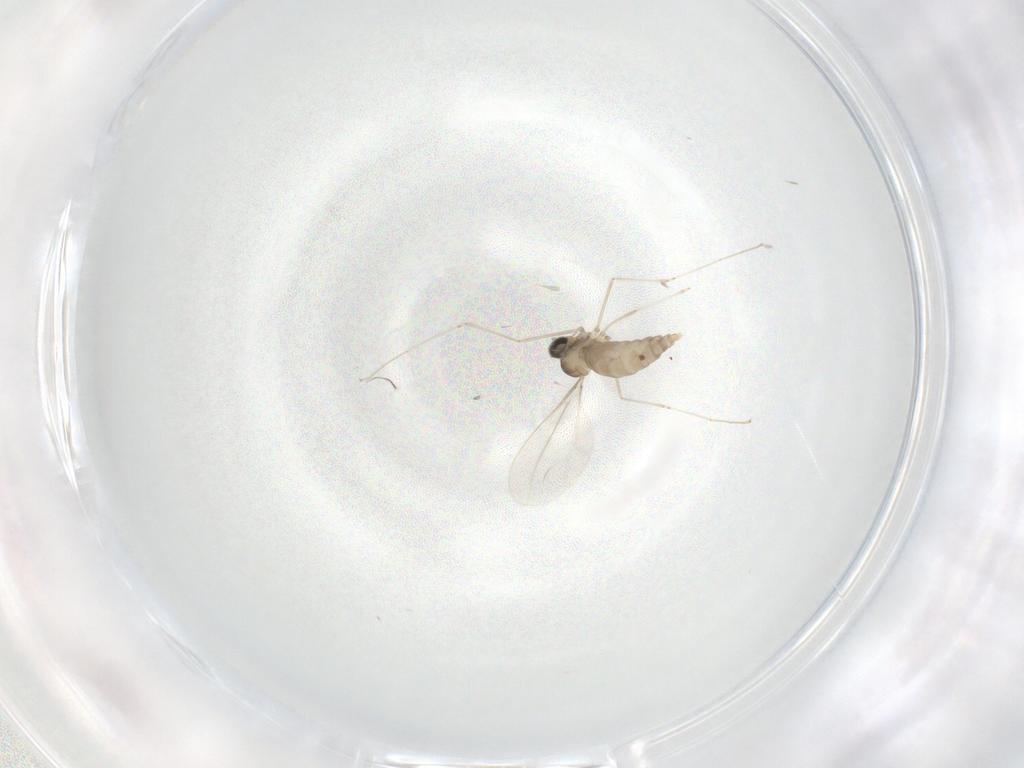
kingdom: Animalia
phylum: Arthropoda
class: Insecta
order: Diptera
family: Cecidomyiidae
